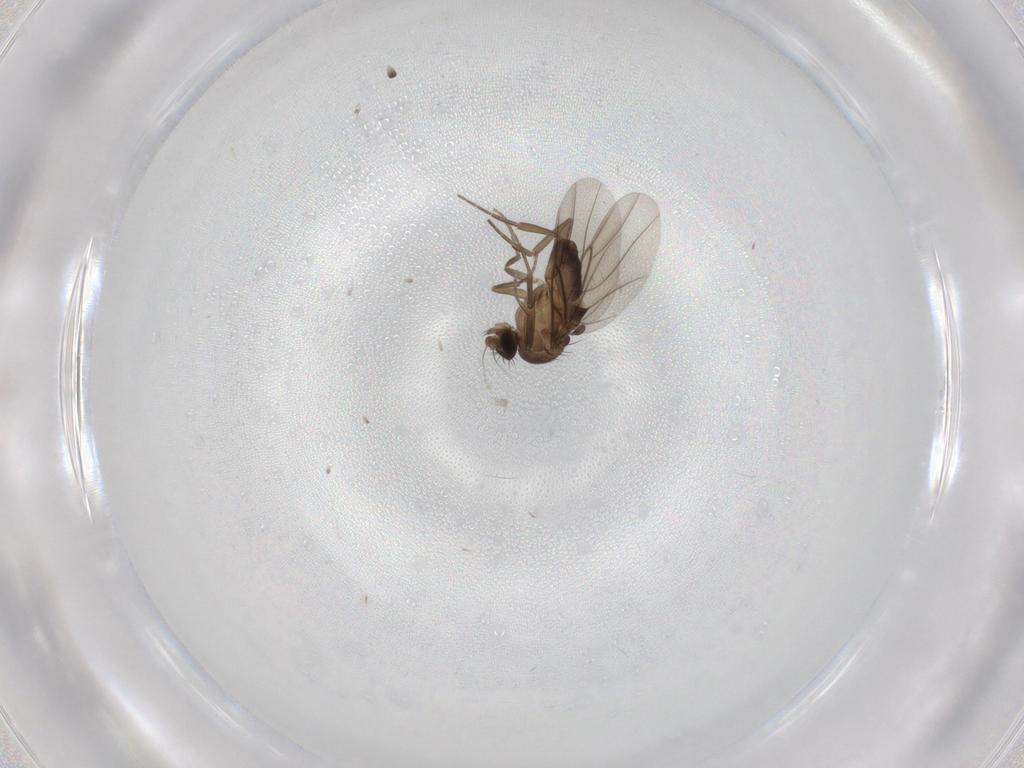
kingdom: Animalia
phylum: Arthropoda
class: Insecta
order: Diptera
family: Phoridae
